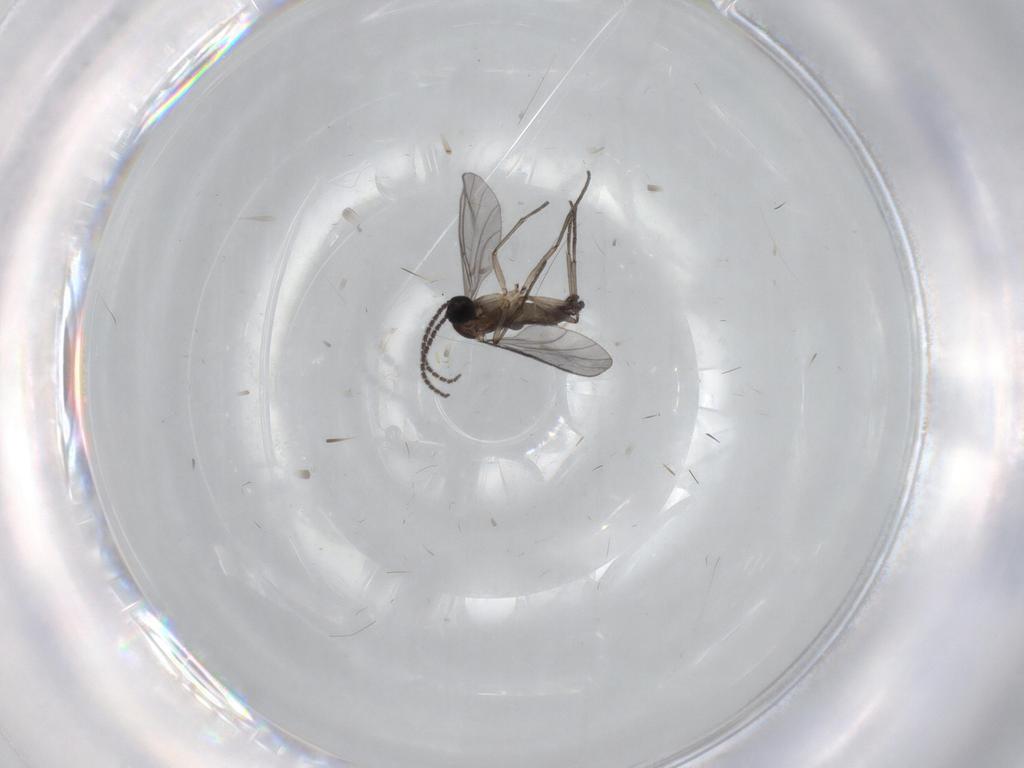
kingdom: Animalia
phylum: Arthropoda
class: Insecta
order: Diptera
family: Sciaridae
